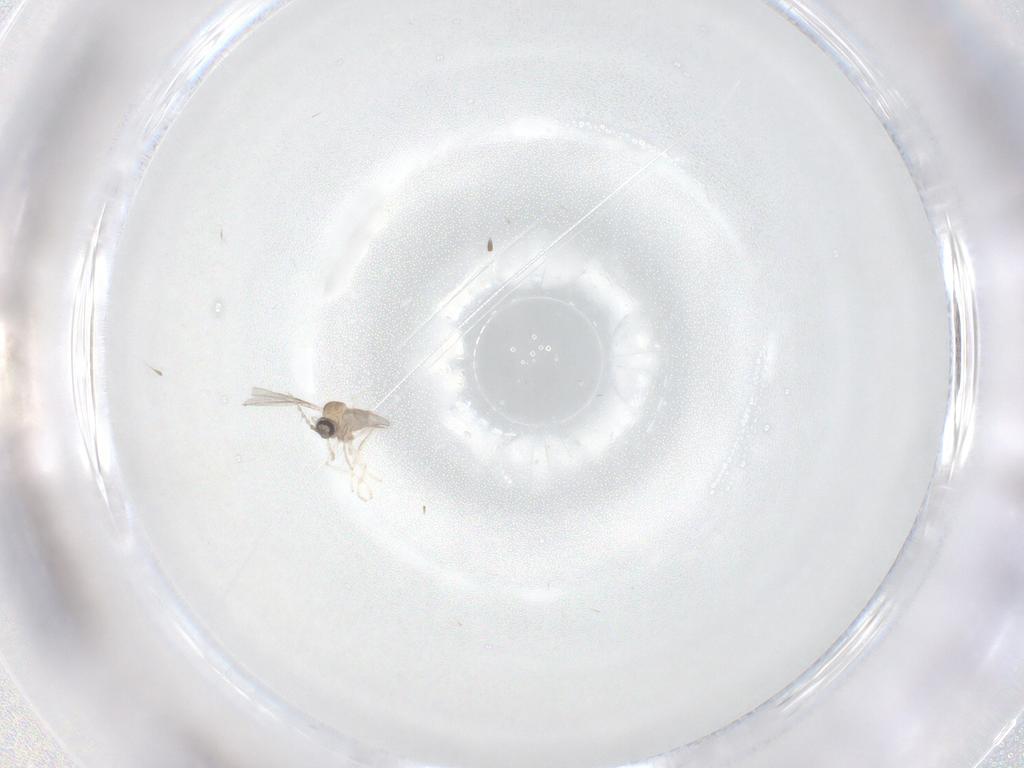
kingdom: Animalia
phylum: Arthropoda
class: Insecta
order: Diptera
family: Cecidomyiidae
